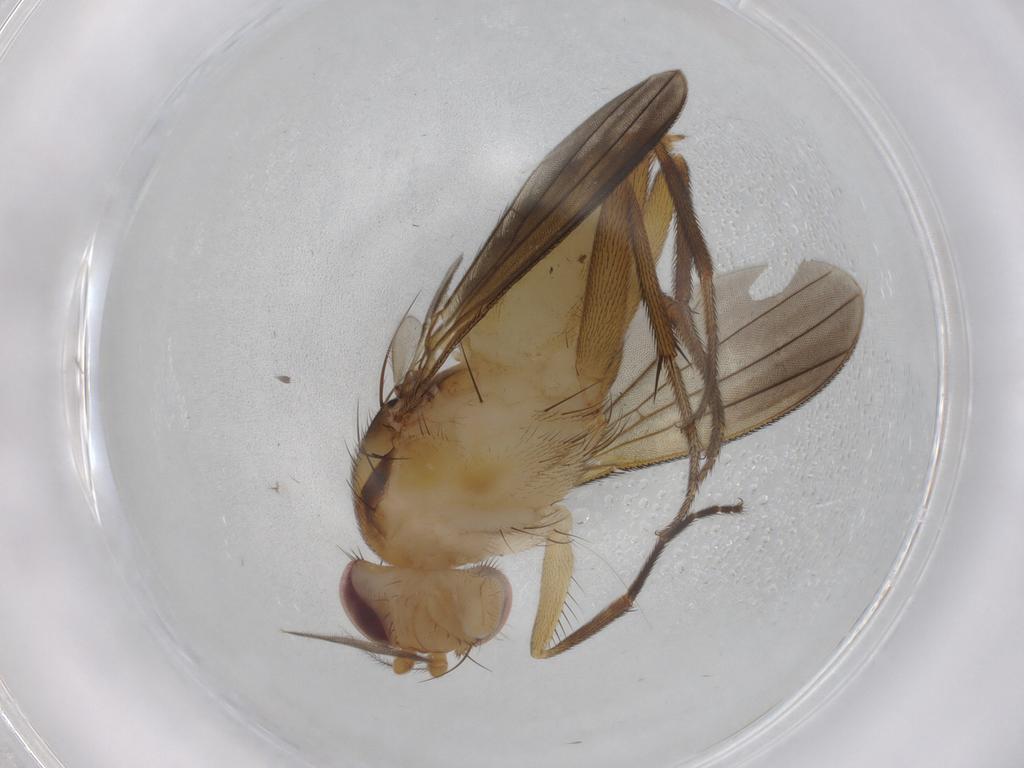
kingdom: Animalia
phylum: Arthropoda
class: Insecta
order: Diptera
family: Clusiidae
